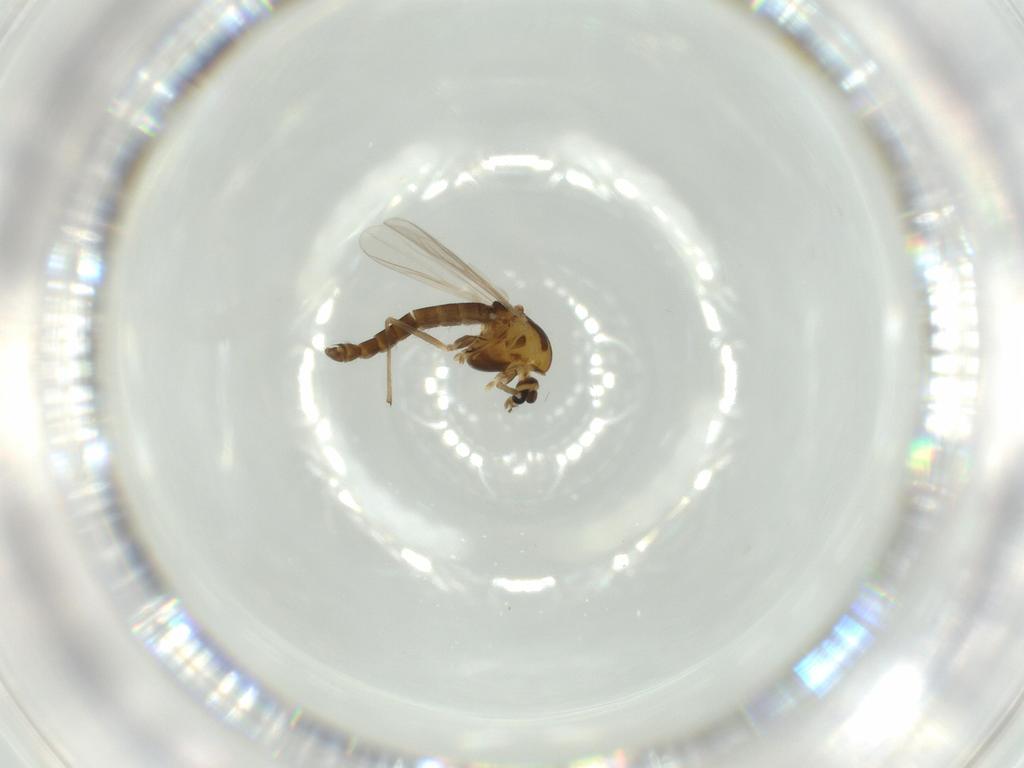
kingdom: Animalia
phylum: Arthropoda
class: Insecta
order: Diptera
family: Chironomidae
